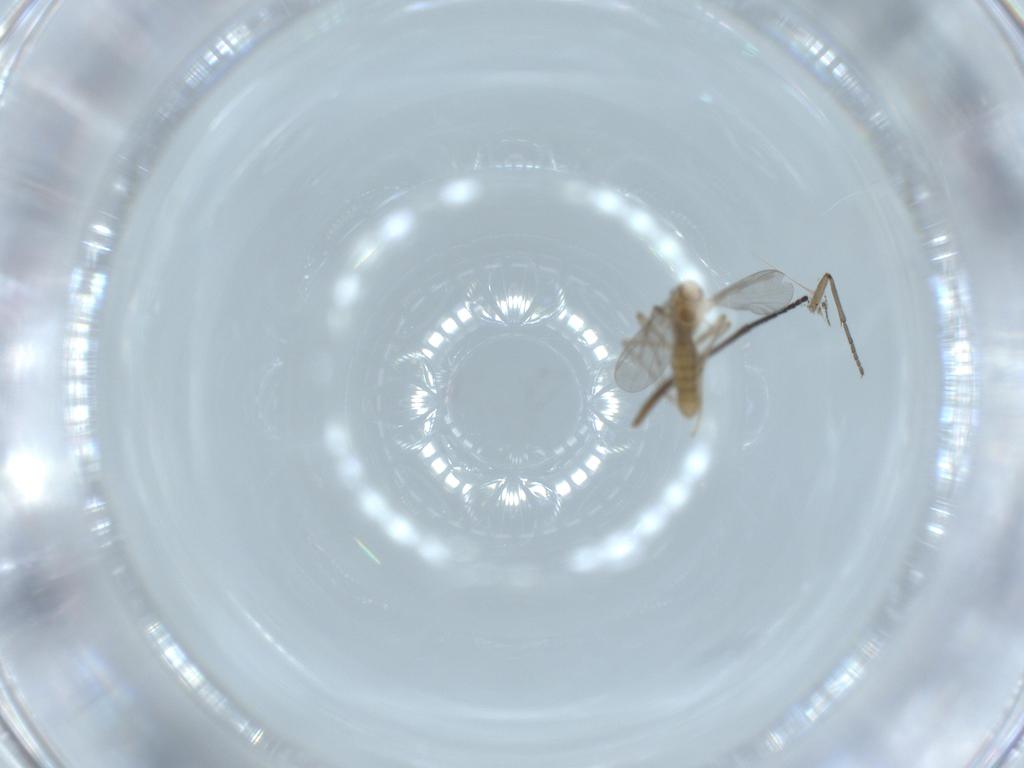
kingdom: Animalia
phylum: Arthropoda
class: Insecta
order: Diptera
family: Chironomidae
